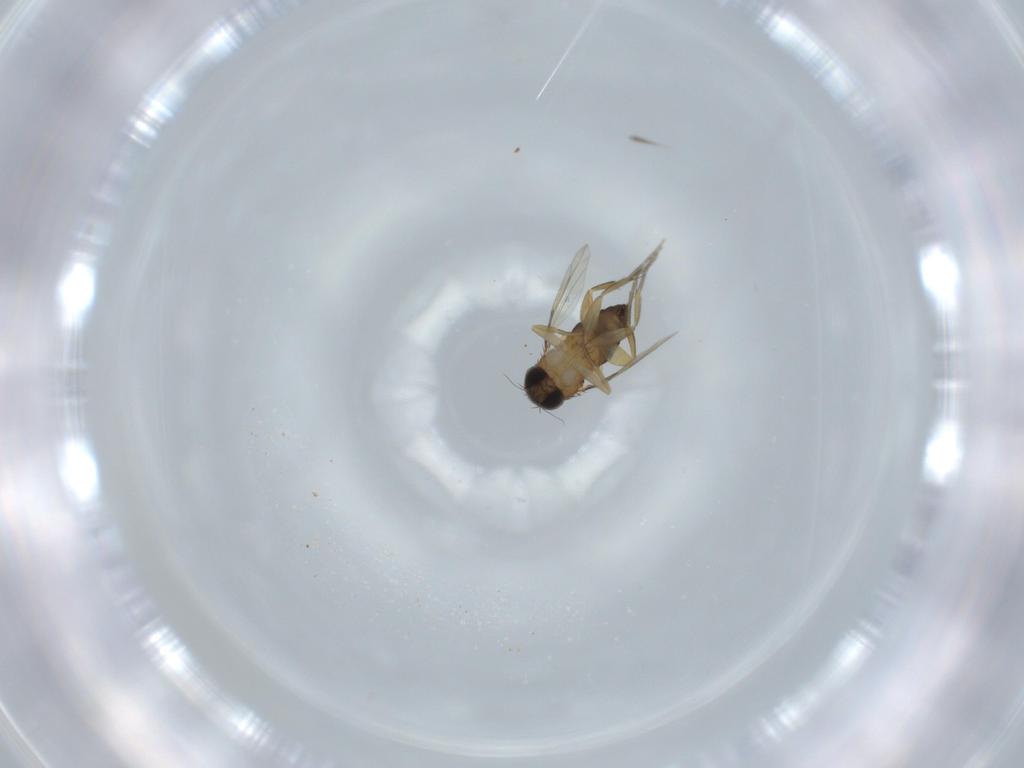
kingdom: Animalia
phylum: Arthropoda
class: Insecta
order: Diptera
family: Phoridae
